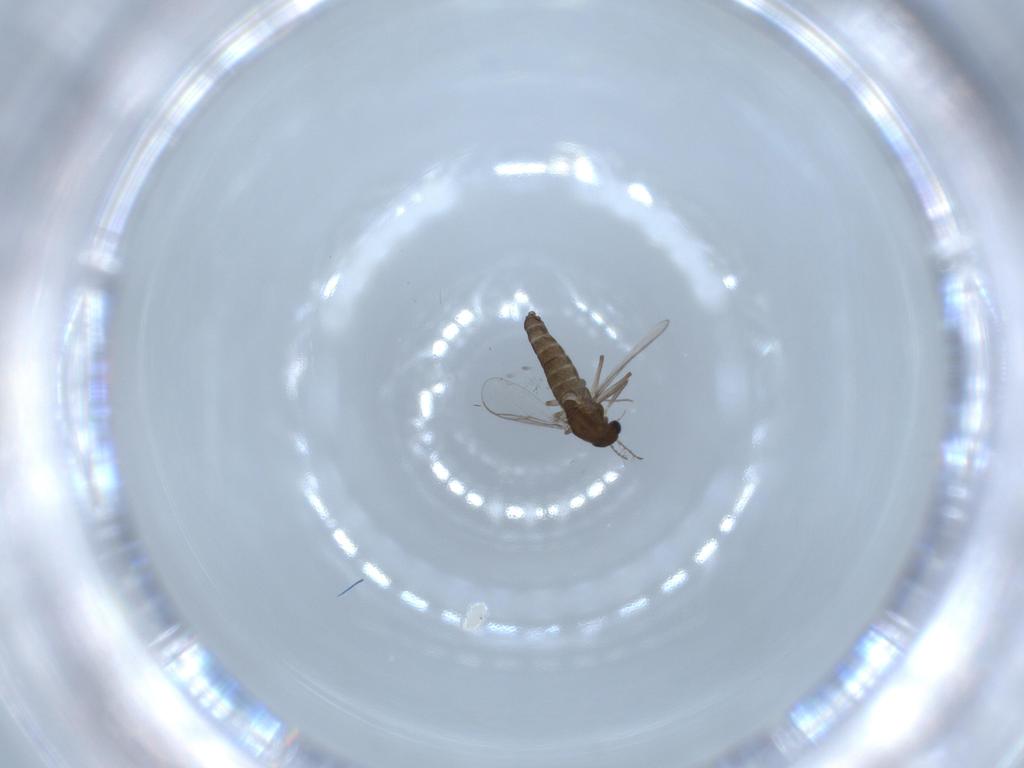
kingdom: Animalia
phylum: Arthropoda
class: Insecta
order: Diptera
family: Chironomidae
